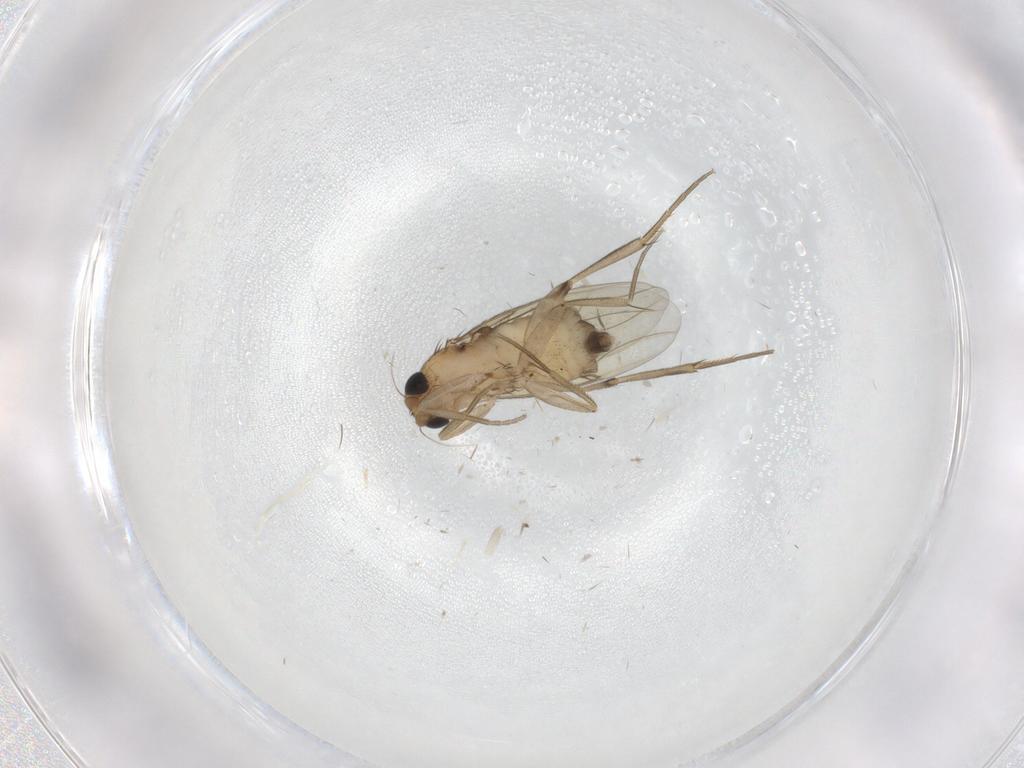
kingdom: Animalia
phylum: Arthropoda
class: Insecta
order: Diptera
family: Phoridae
